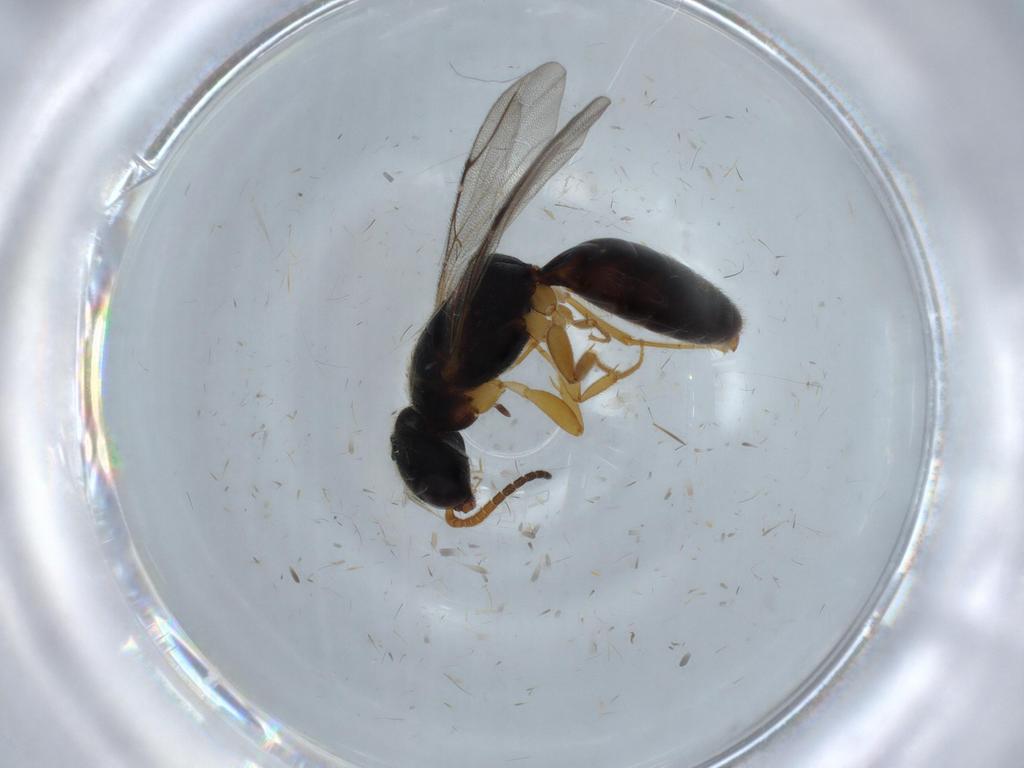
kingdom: Animalia
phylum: Arthropoda
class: Insecta
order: Hymenoptera
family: Bethylidae
